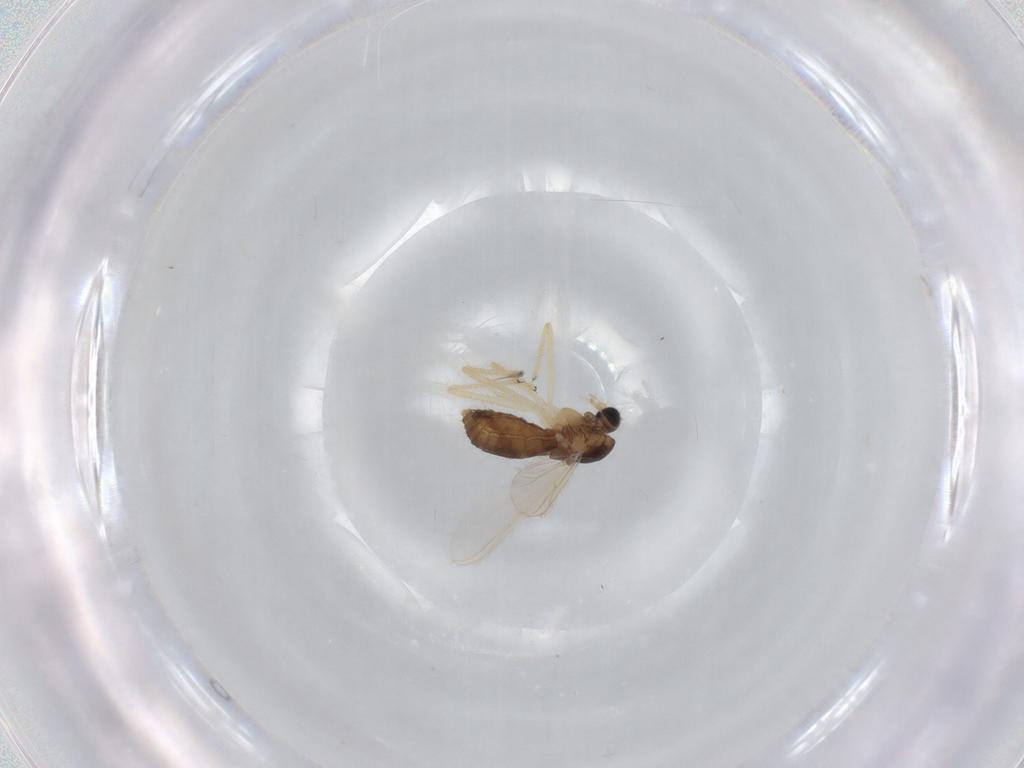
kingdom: Animalia
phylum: Arthropoda
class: Insecta
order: Diptera
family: Chironomidae
